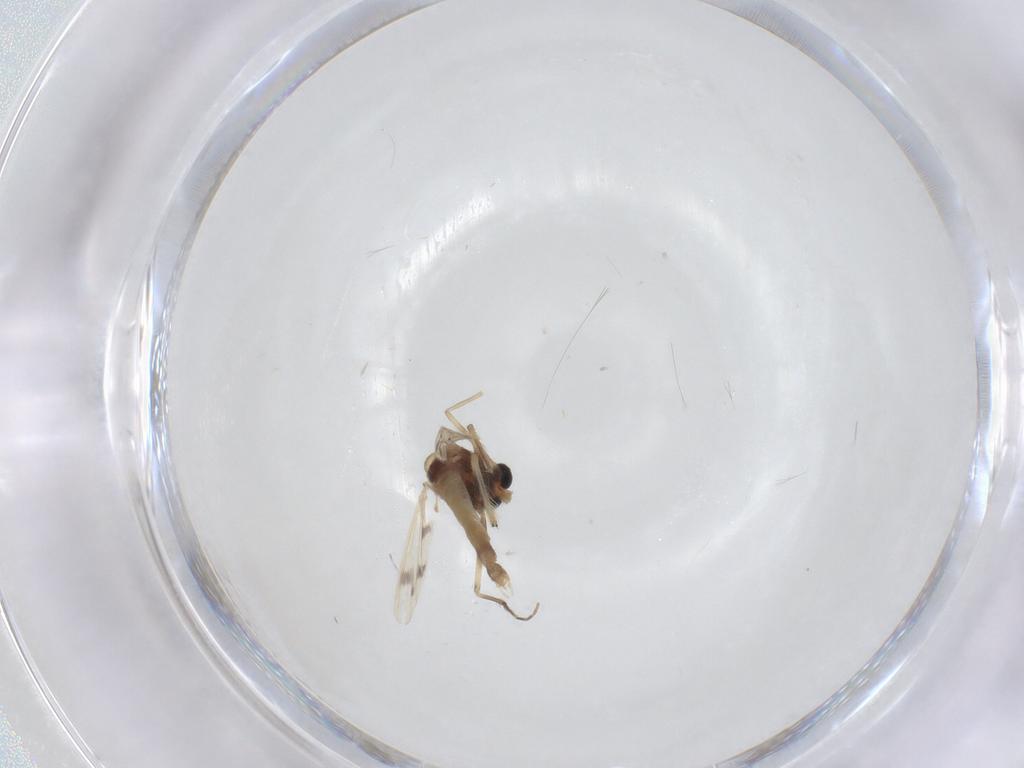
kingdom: Animalia
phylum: Arthropoda
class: Insecta
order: Diptera
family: Chironomidae
